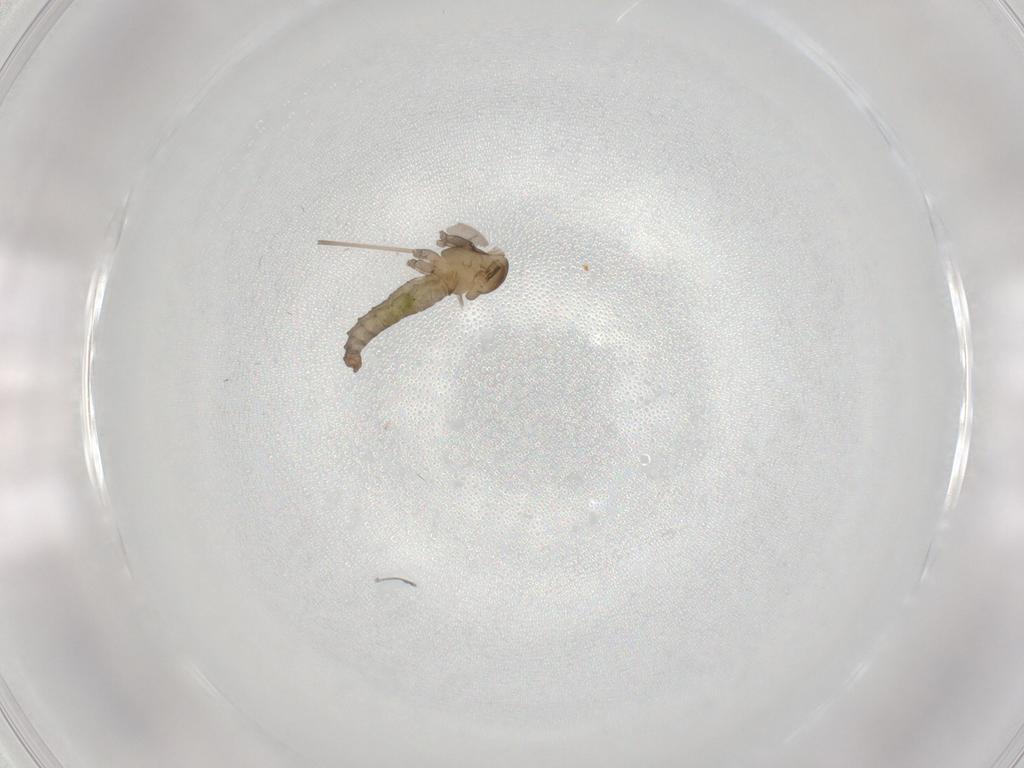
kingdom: Animalia
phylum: Arthropoda
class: Insecta
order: Diptera
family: Cecidomyiidae
